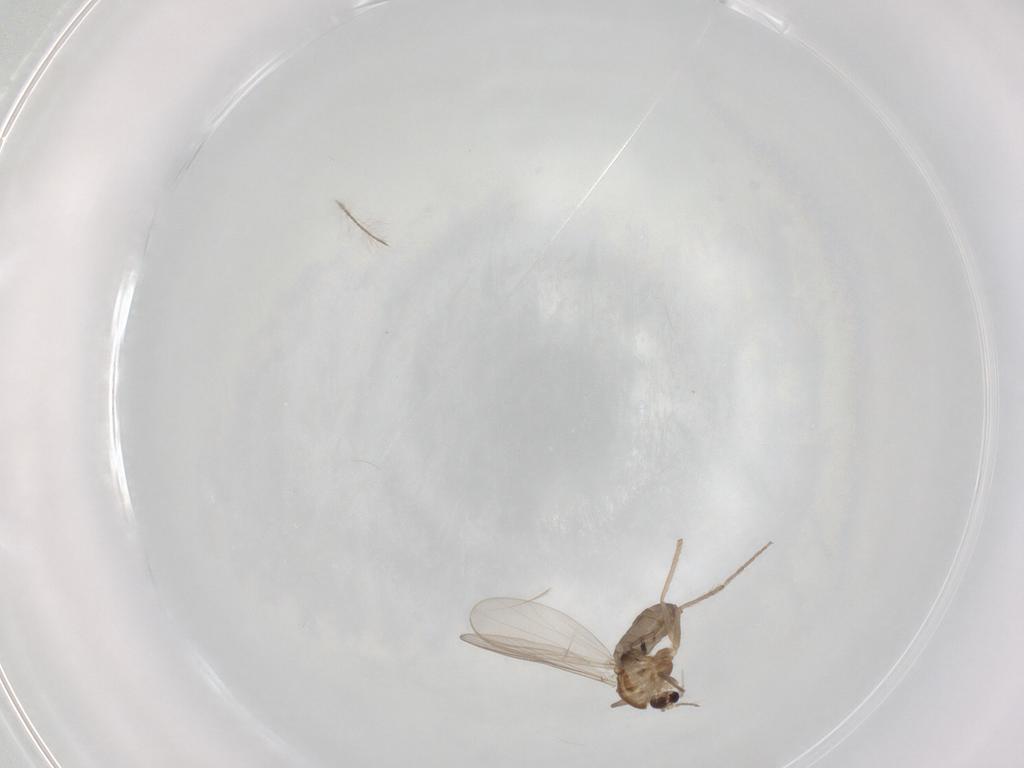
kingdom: Animalia
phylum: Arthropoda
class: Insecta
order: Diptera
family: Chironomidae
